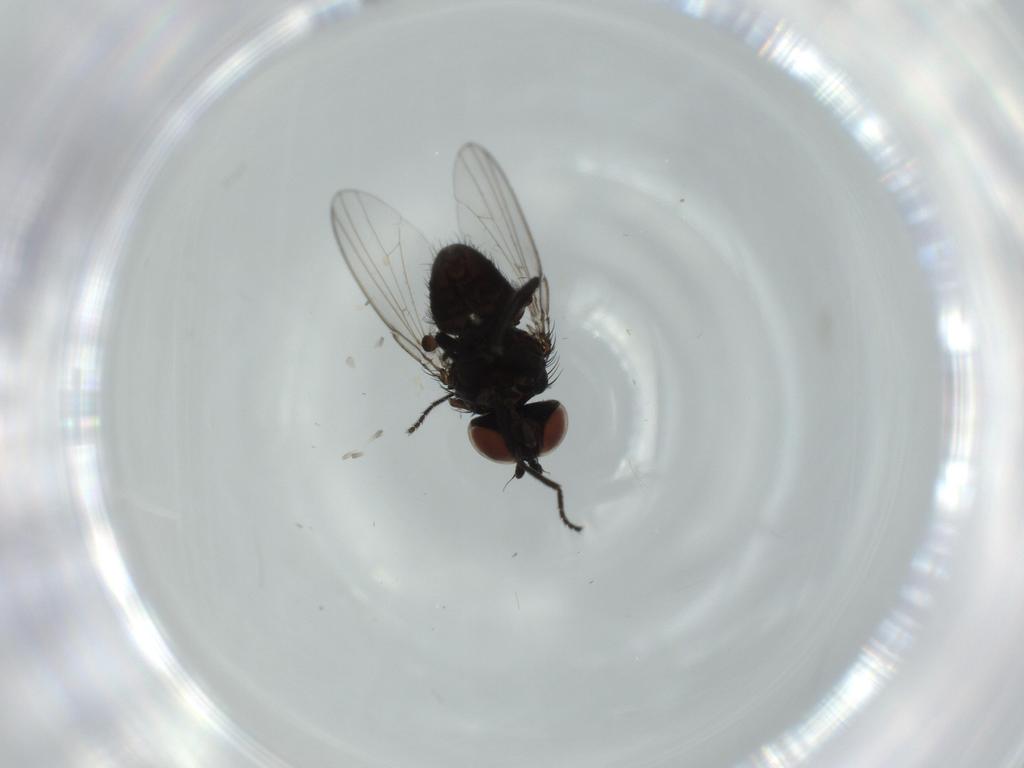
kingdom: Animalia
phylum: Arthropoda
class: Insecta
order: Diptera
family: Milichiidae
